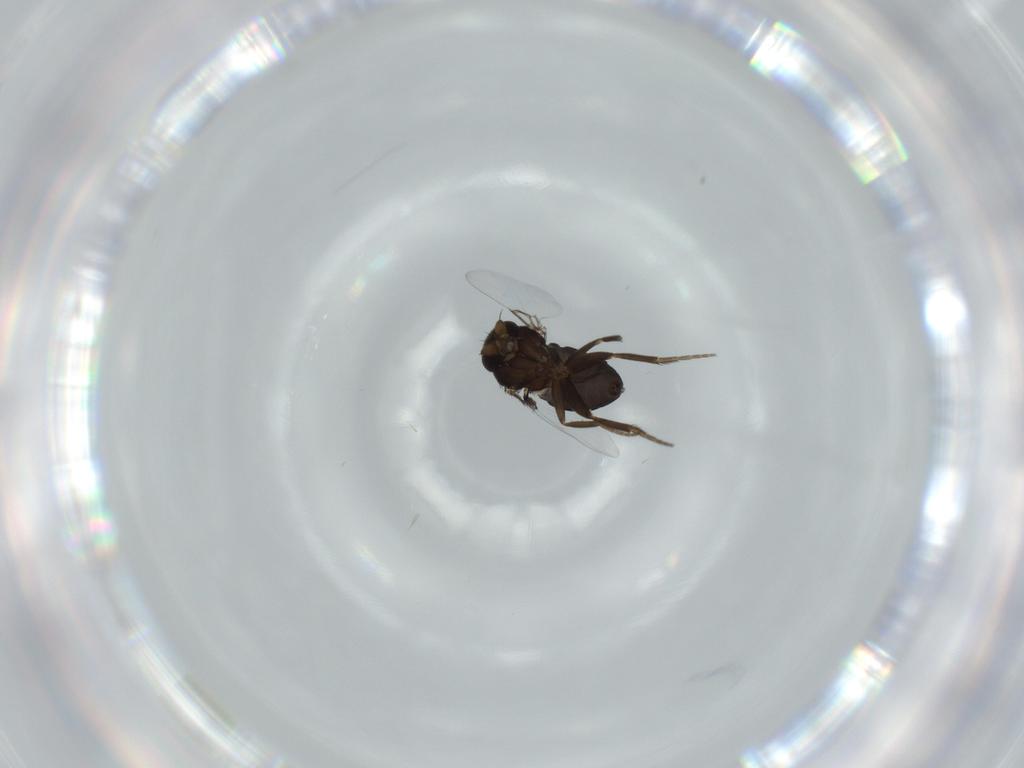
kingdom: Animalia
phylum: Arthropoda
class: Insecta
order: Diptera
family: Phoridae
